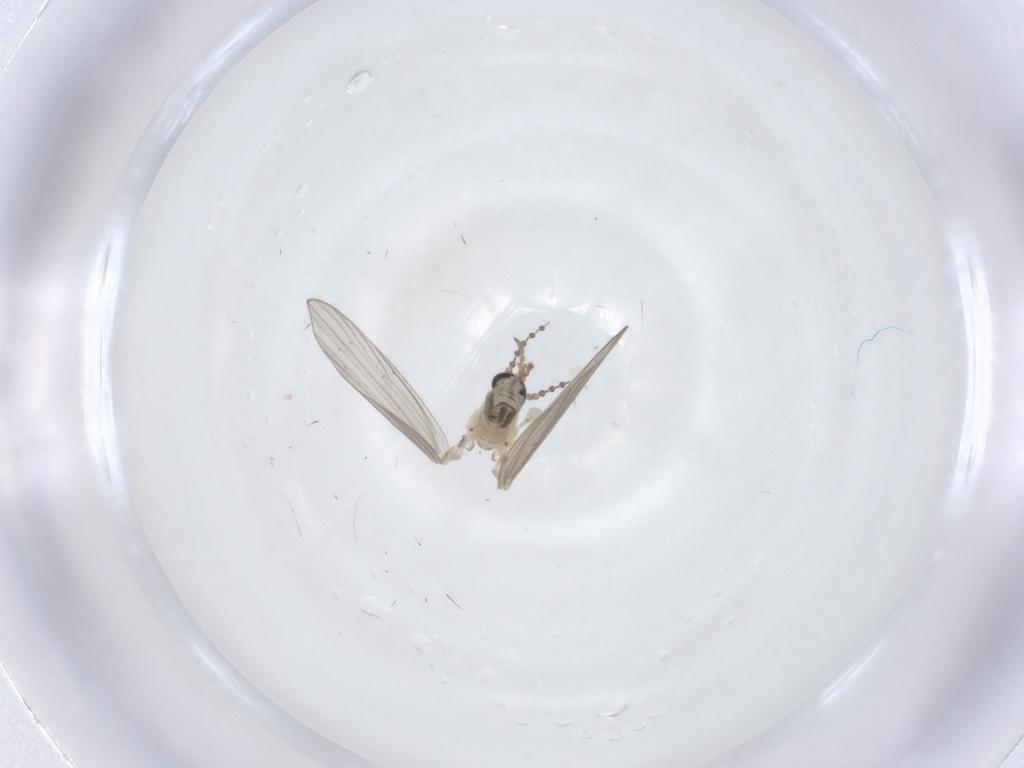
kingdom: Animalia
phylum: Arthropoda
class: Insecta
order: Diptera
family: Psychodidae
